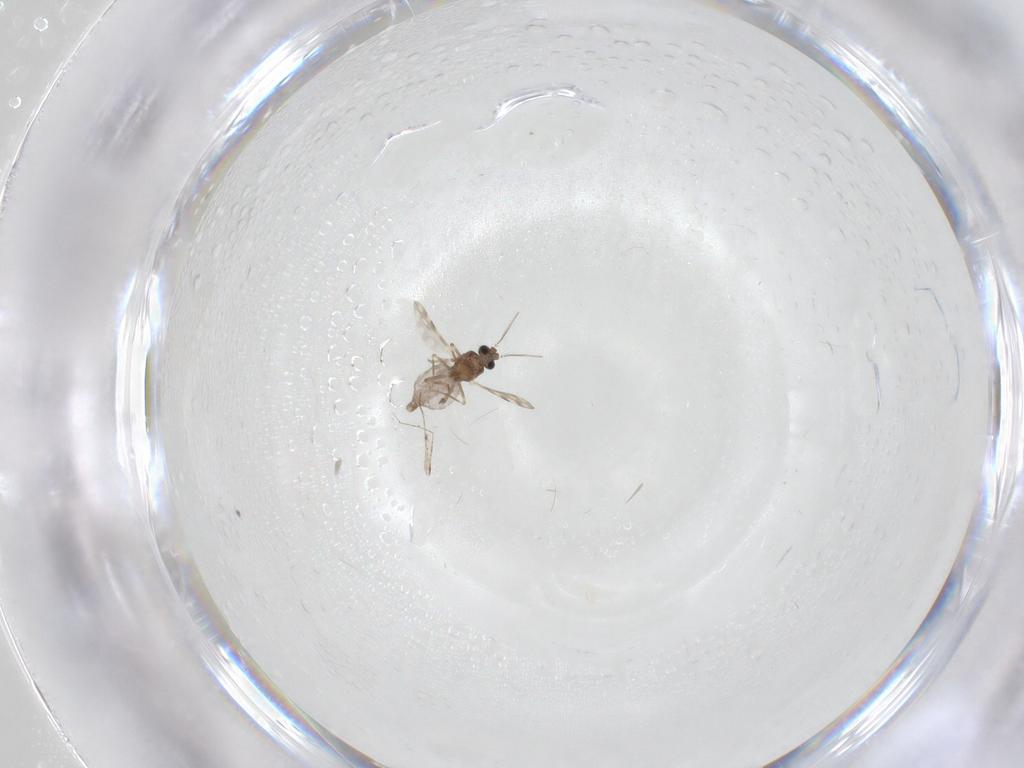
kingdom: Animalia
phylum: Arthropoda
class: Insecta
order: Diptera
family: Ceratopogonidae
